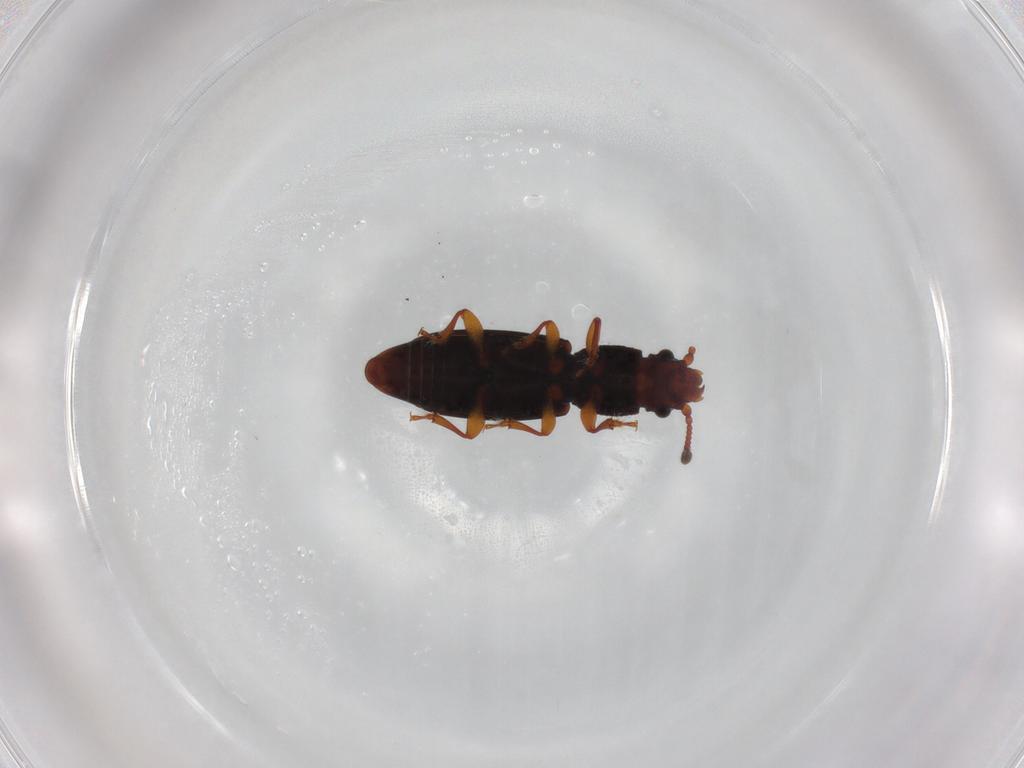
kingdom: Animalia
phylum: Arthropoda
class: Insecta
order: Coleoptera
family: Monotomidae
